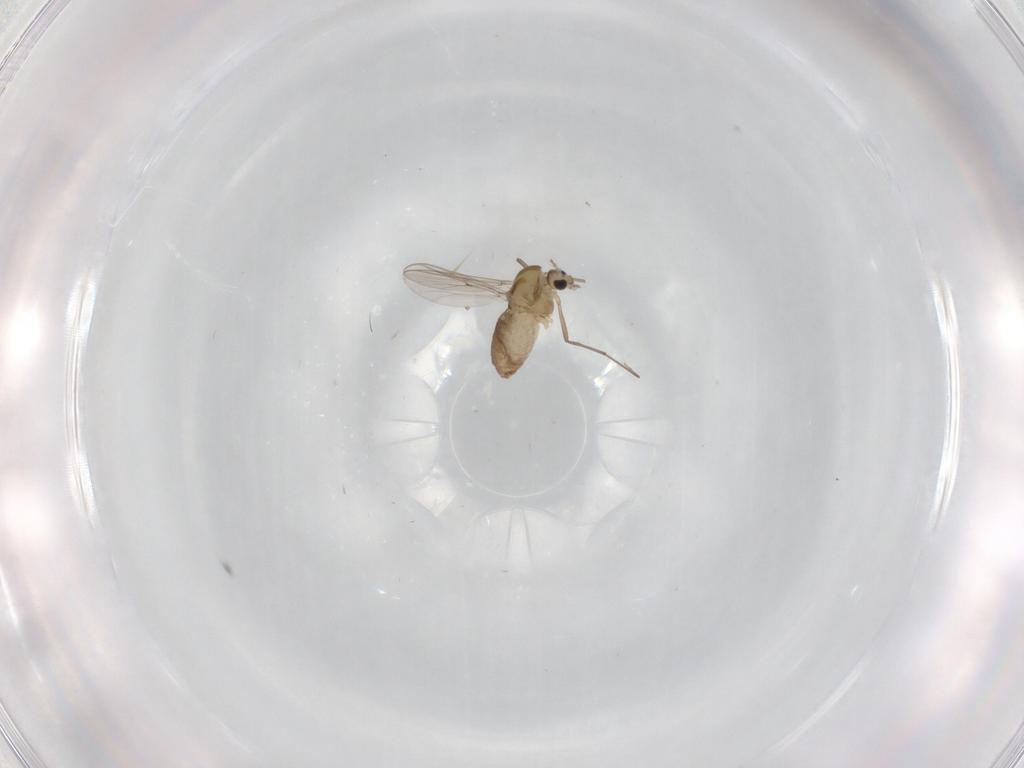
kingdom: Animalia
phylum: Arthropoda
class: Insecta
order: Diptera
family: Chironomidae
